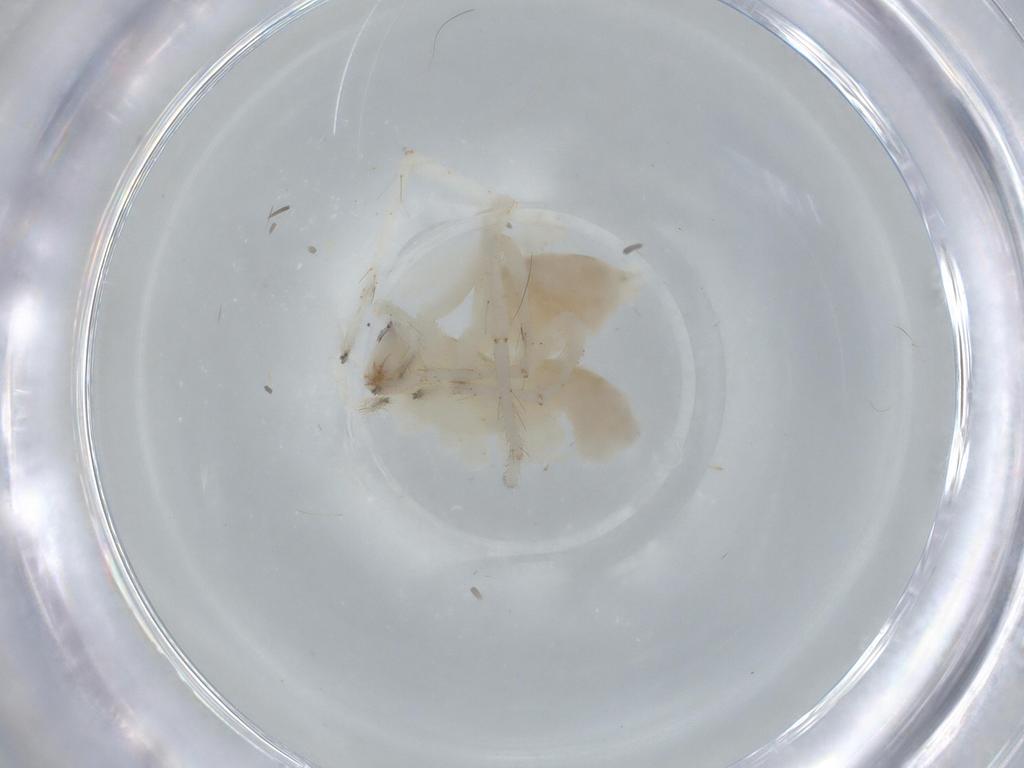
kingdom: Animalia
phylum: Arthropoda
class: Arachnida
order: Araneae
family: Anyphaenidae
